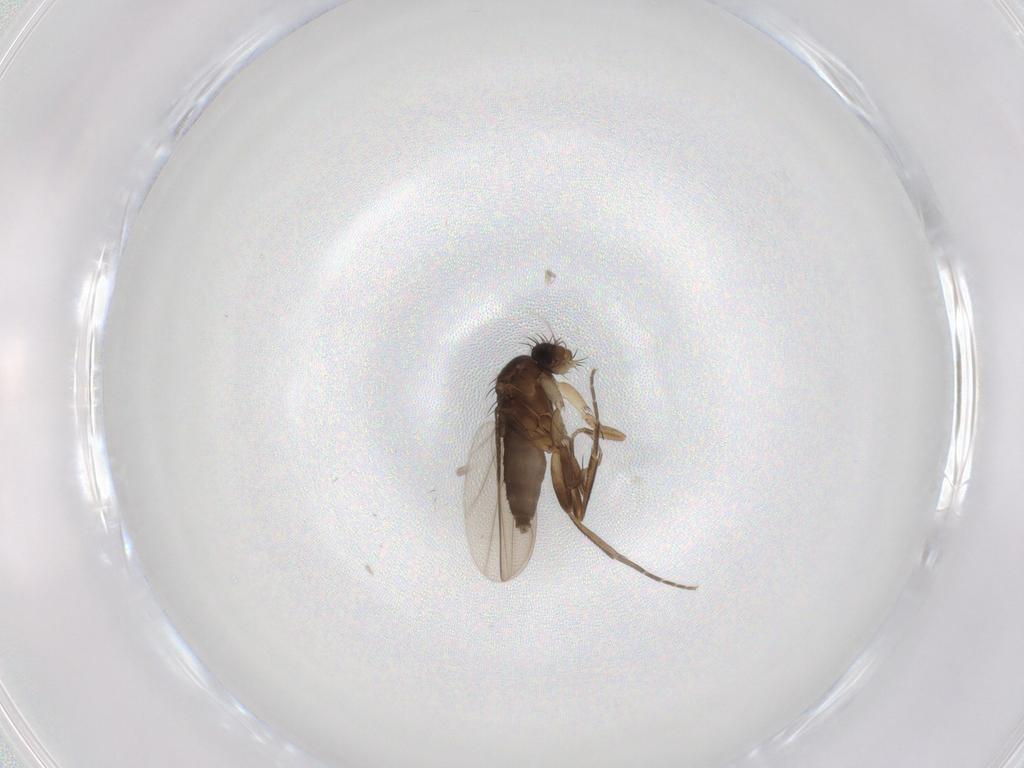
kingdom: Animalia
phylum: Arthropoda
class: Insecta
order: Diptera
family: Phoridae
